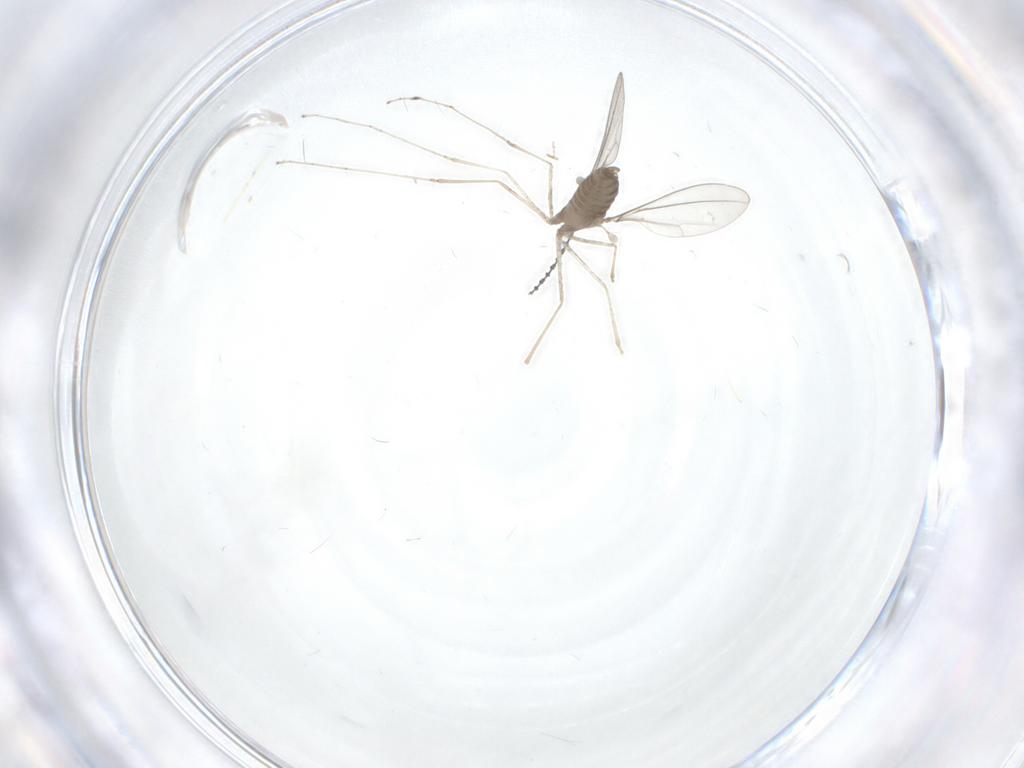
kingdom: Animalia
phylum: Arthropoda
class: Insecta
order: Diptera
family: Cecidomyiidae
